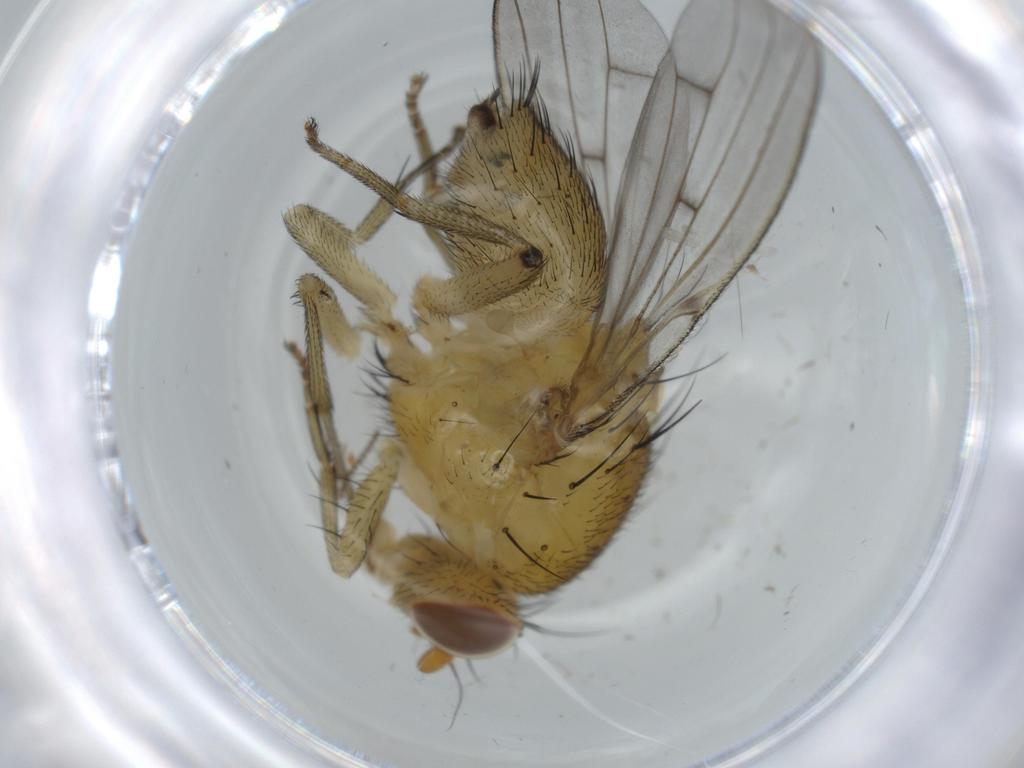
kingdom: Animalia
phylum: Arthropoda
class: Insecta
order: Diptera
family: Cecidomyiidae
